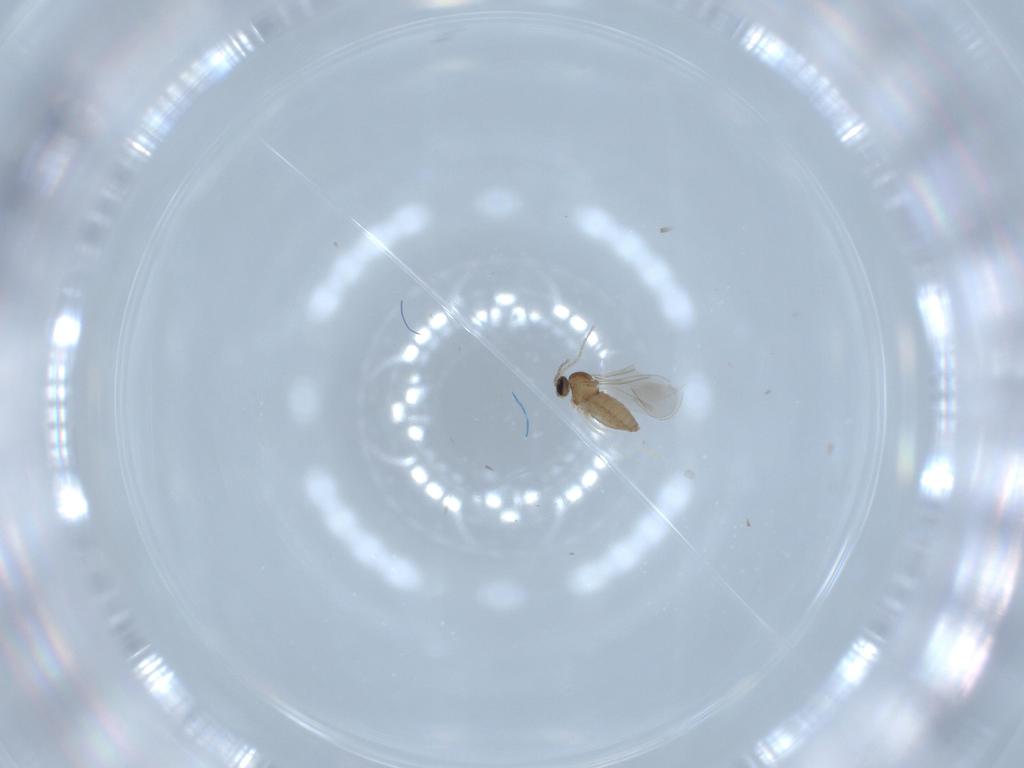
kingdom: Animalia
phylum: Arthropoda
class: Insecta
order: Diptera
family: Cecidomyiidae
